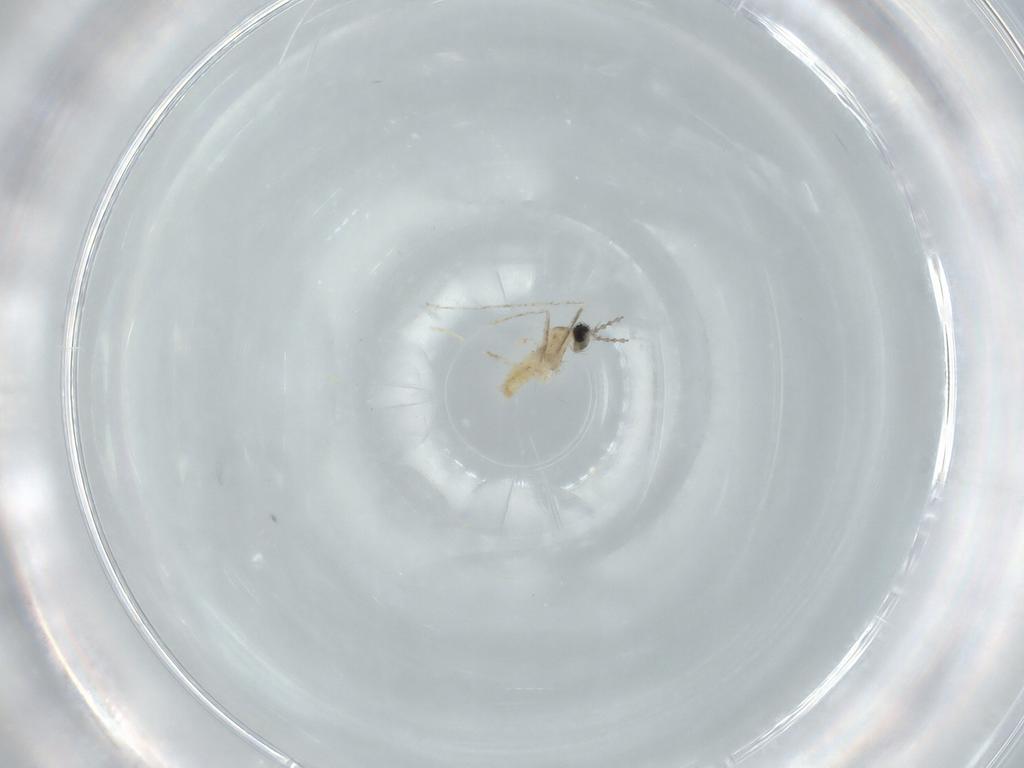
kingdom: Animalia
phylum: Arthropoda
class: Insecta
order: Diptera
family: Cecidomyiidae
